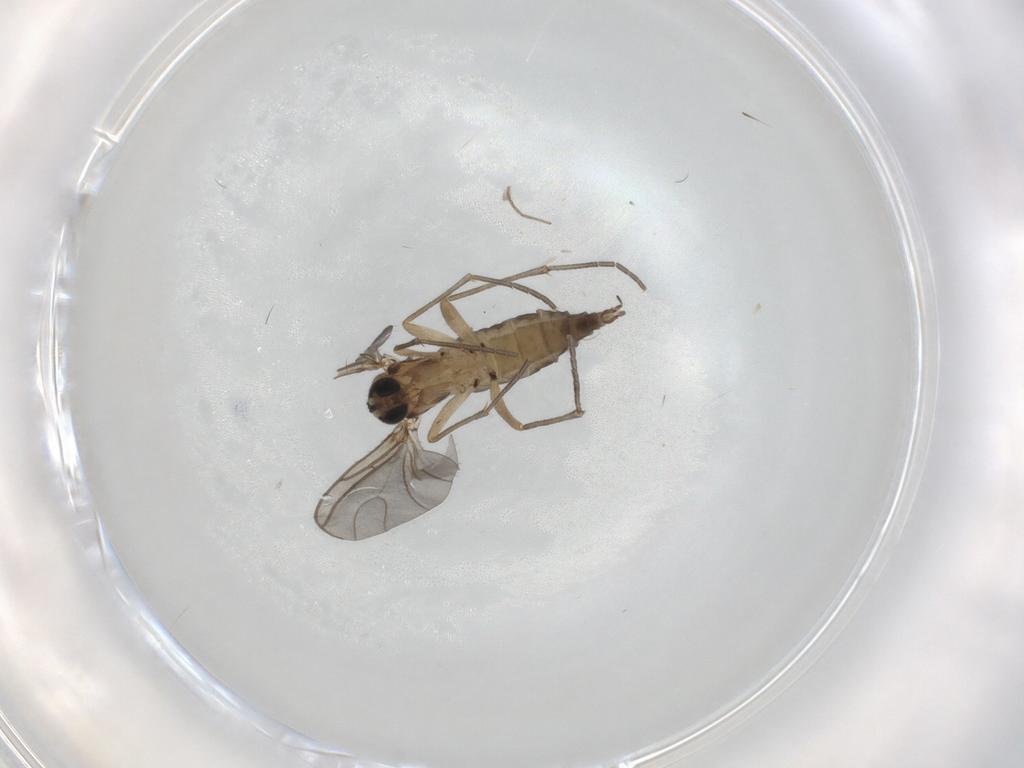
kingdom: Animalia
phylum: Arthropoda
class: Insecta
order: Diptera
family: Sciaridae
